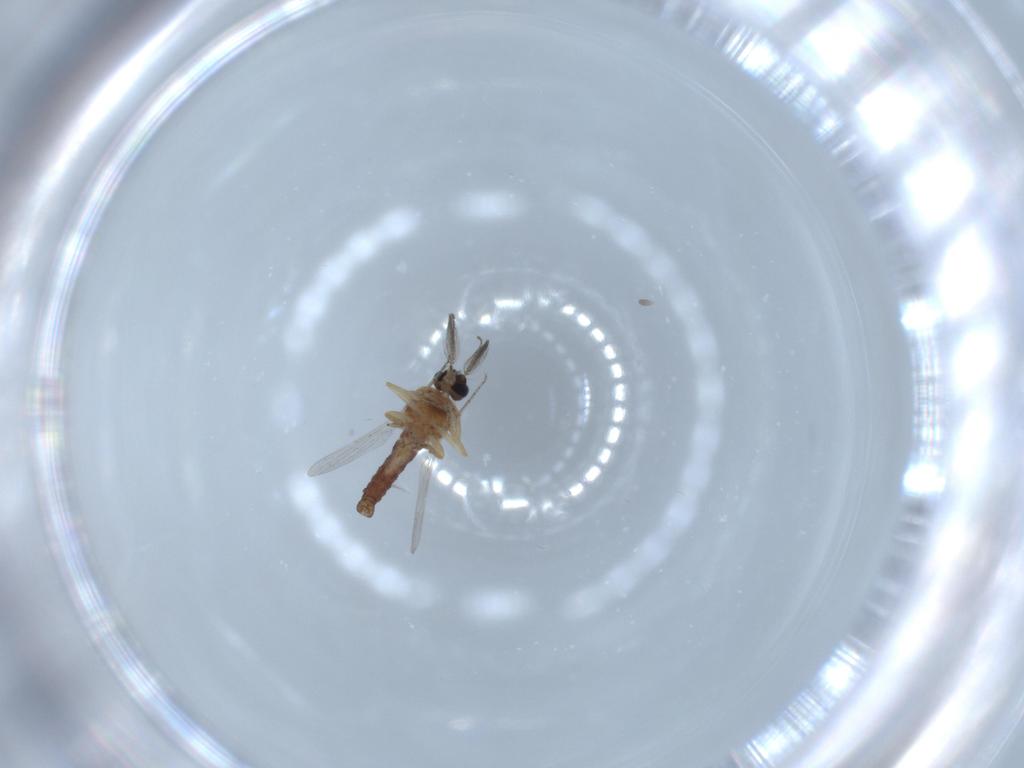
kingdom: Animalia
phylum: Arthropoda
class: Insecta
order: Diptera
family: Ceratopogonidae
